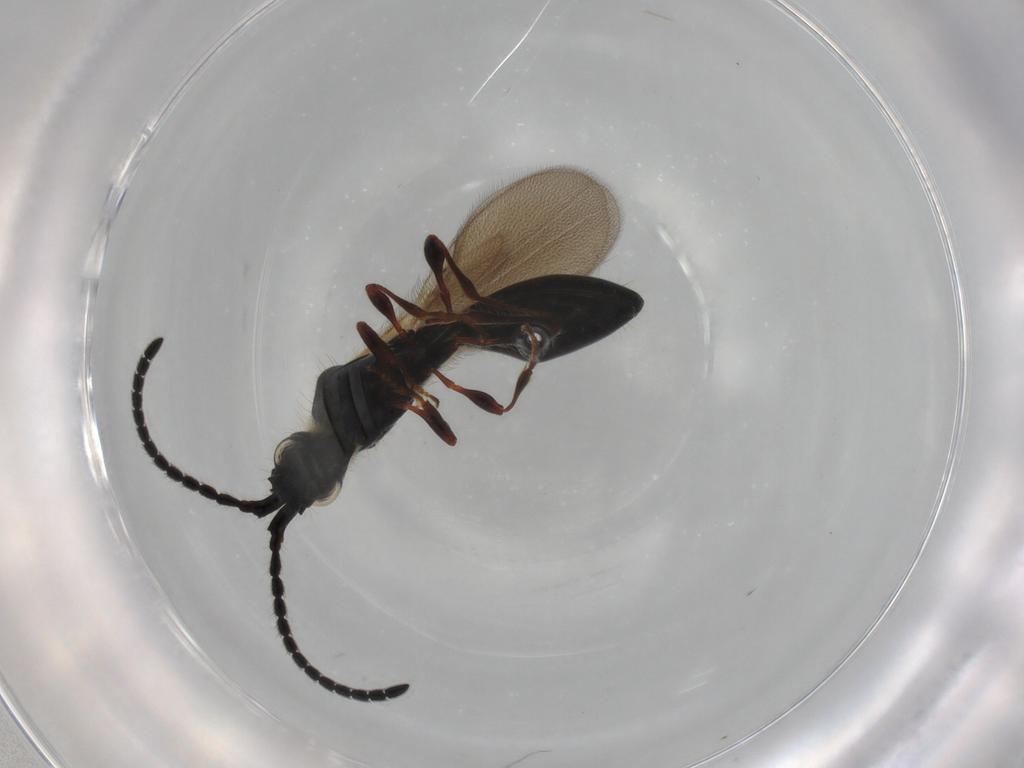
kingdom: Animalia
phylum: Arthropoda
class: Insecta
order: Hymenoptera
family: Diapriidae
